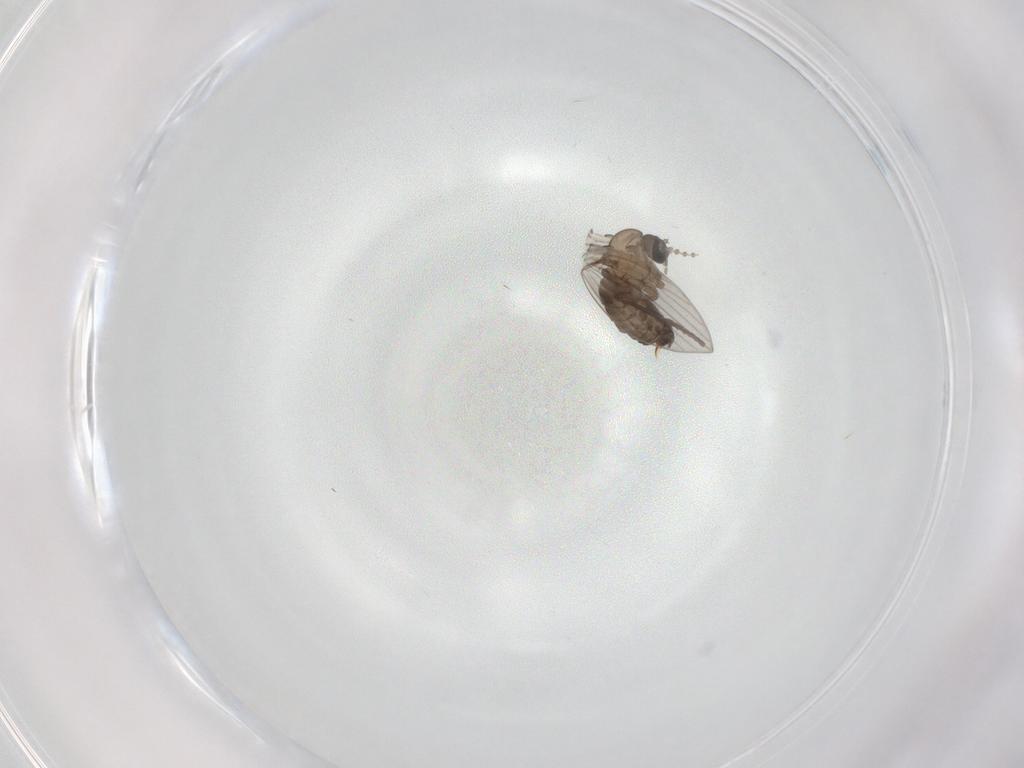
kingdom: Animalia
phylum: Arthropoda
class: Insecta
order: Diptera
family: Psychodidae
